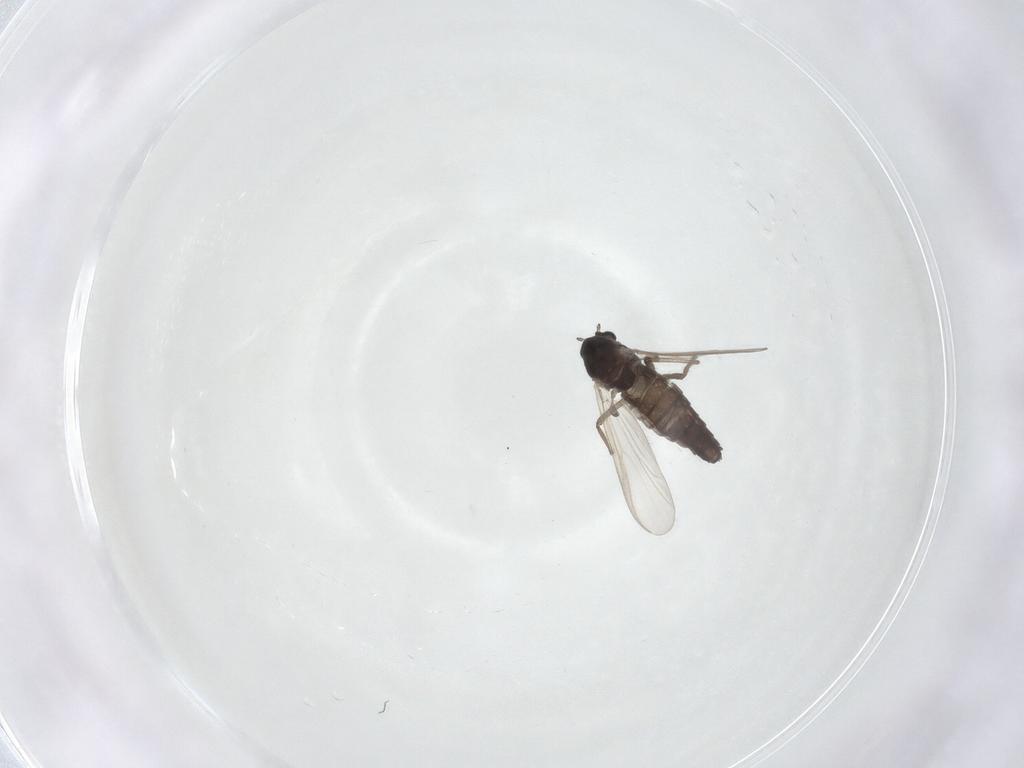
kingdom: Animalia
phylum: Arthropoda
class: Insecta
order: Diptera
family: Chironomidae
